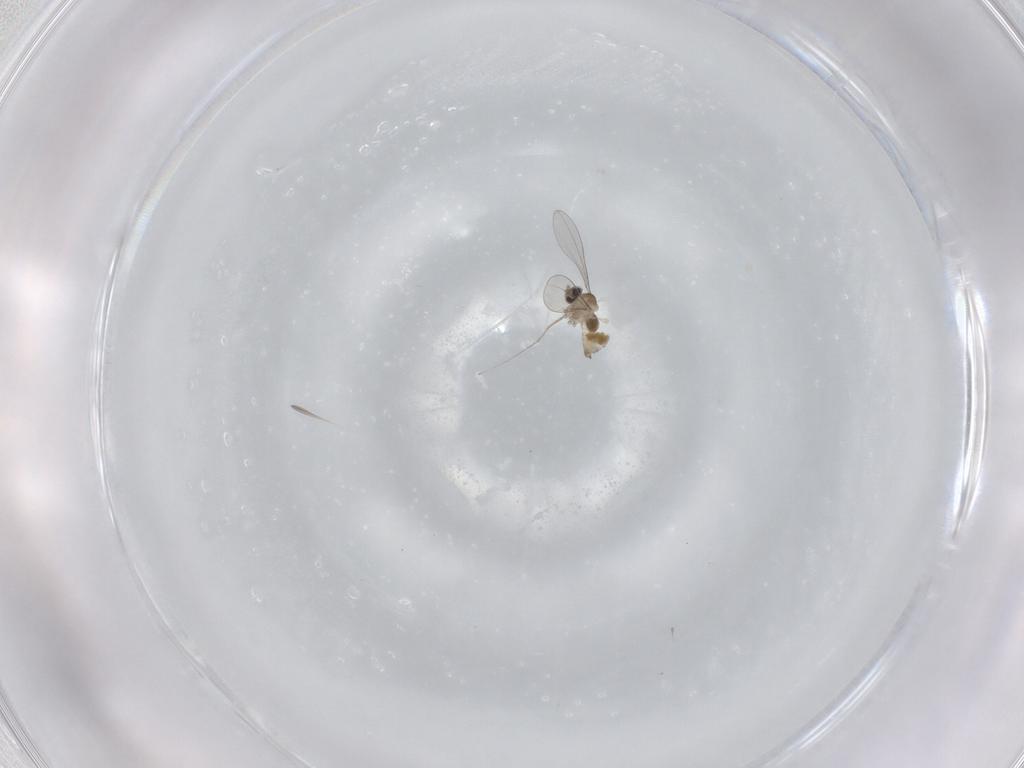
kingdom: Animalia
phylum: Arthropoda
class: Insecta
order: Diptera
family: Cecidomyiidae
